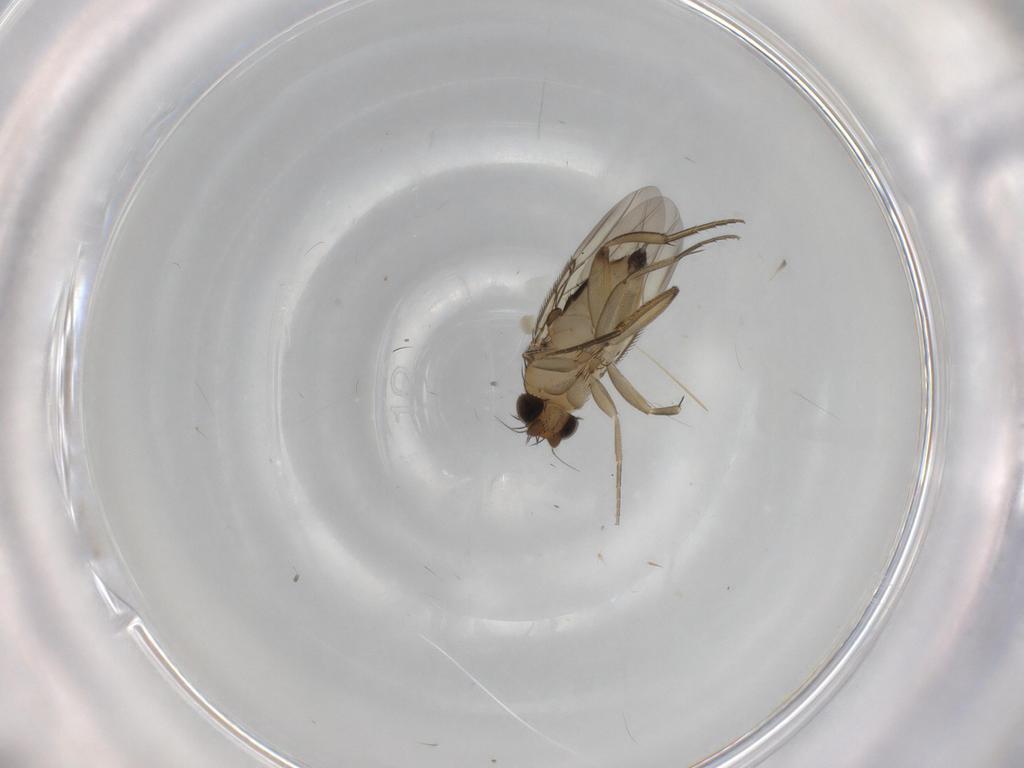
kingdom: Animalia
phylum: Arthropoda
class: Insecta
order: Diptera
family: Phoridae
